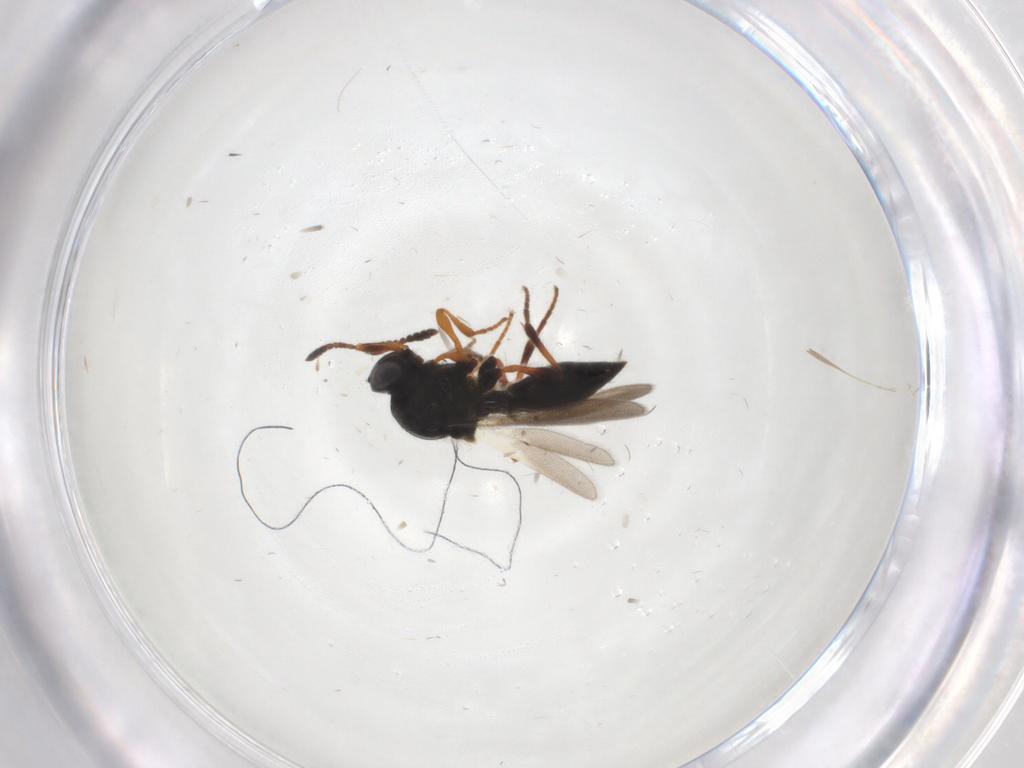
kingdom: Animalia
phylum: Arthropoda
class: Insecta
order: Hymenoptera
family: Platygastridae
